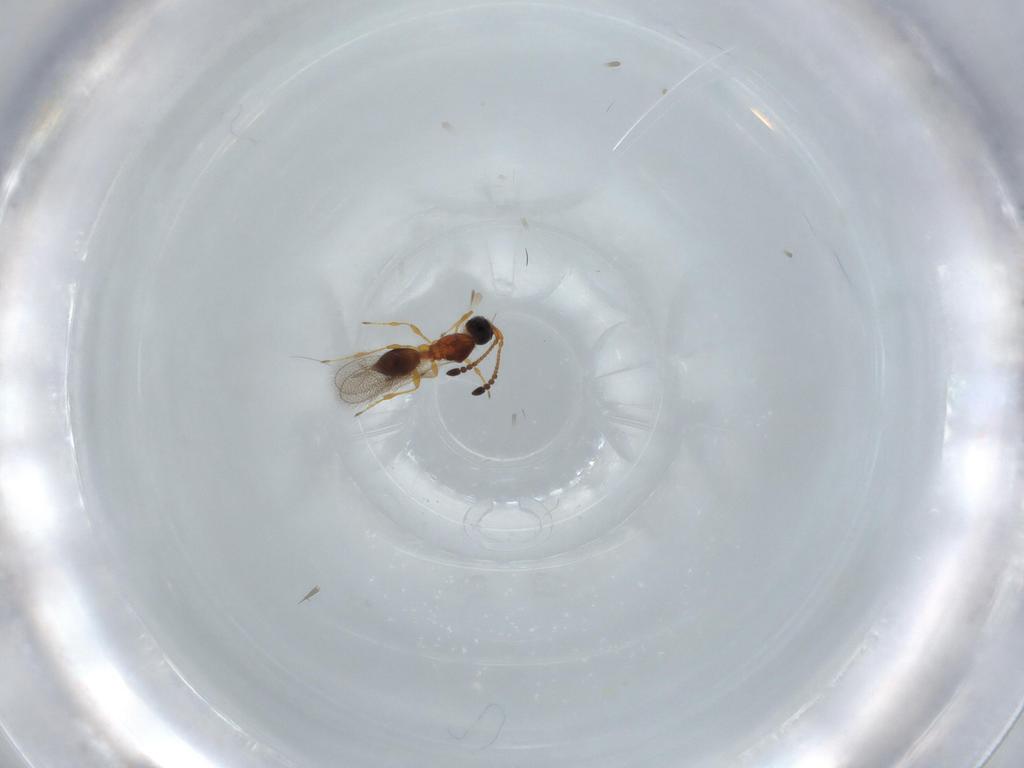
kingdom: Animalia
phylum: Arthropoda
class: Insecta
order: Hymenoptera
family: Diapriidae
